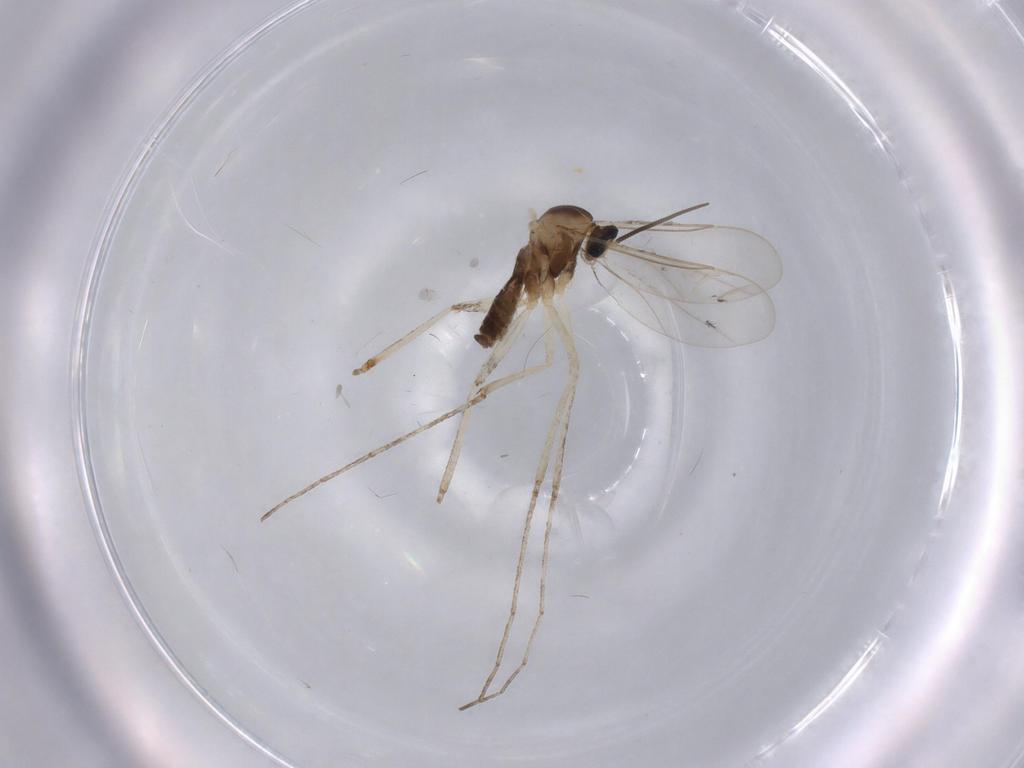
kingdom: Animalia
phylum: Arthropoda
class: Insecta
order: Diptera
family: Cecidomyiidae
